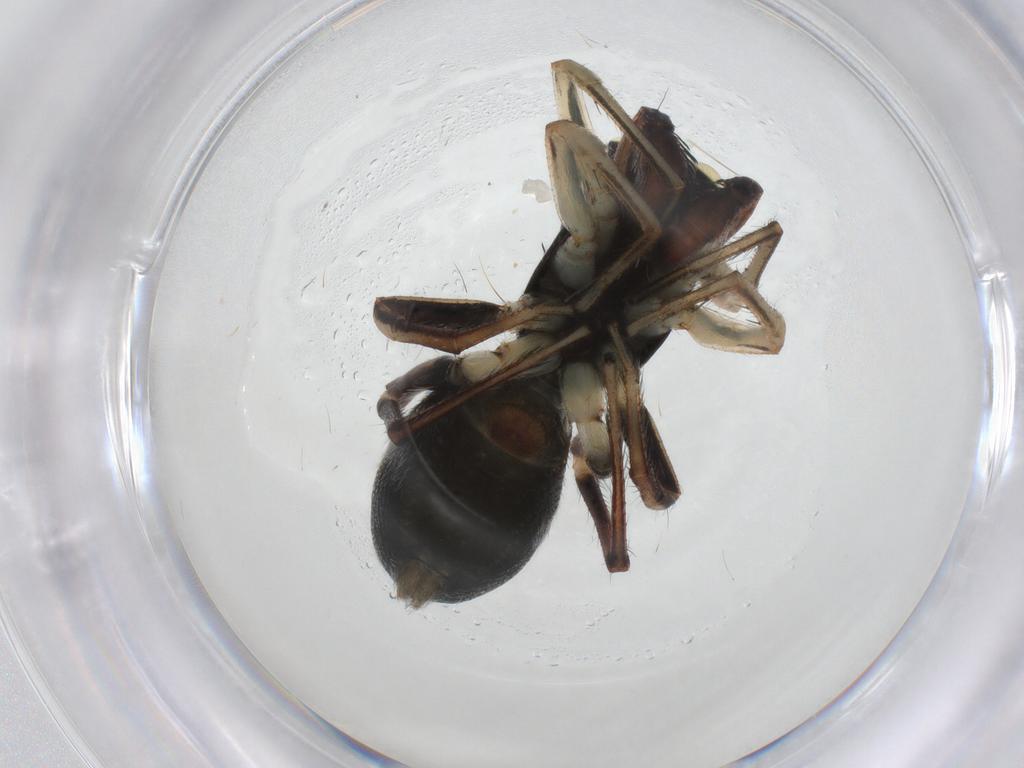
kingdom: Animalia
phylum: Arthropoda
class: Arachnida
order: Araneae
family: Salticidae
